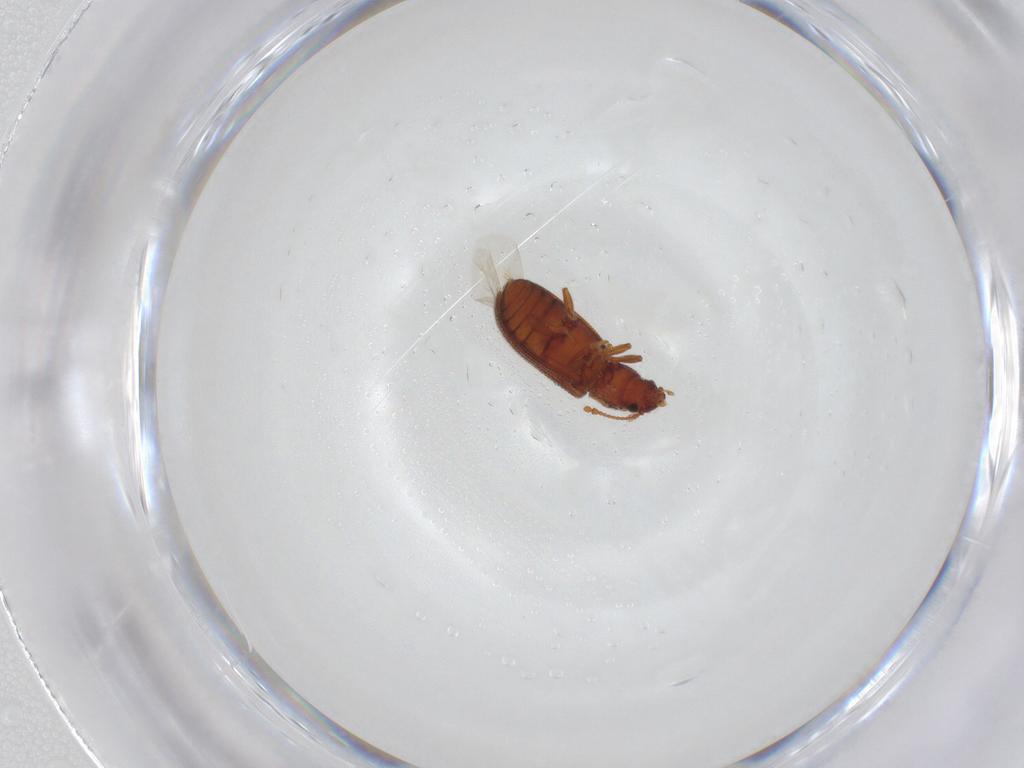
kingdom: Animalia
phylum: Arthropoda
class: Insecta
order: Coleoptera
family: Mycetophagidae
